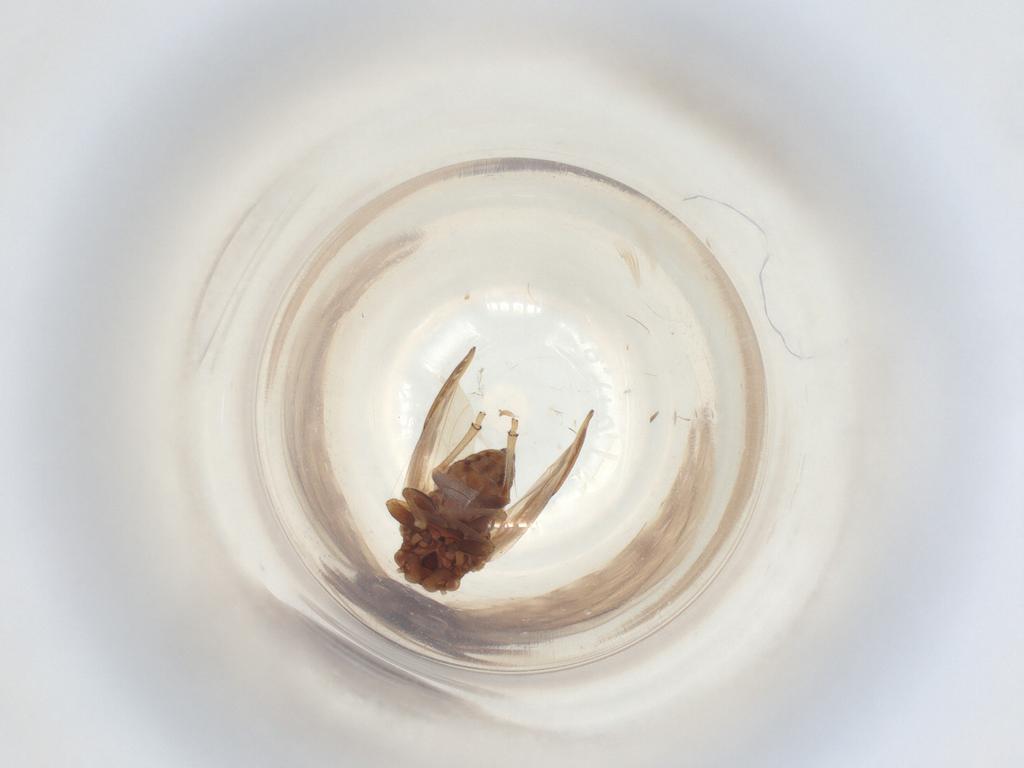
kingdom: Animalia
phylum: Arthropoda
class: Insecta
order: Hemiptera
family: Liviidae
